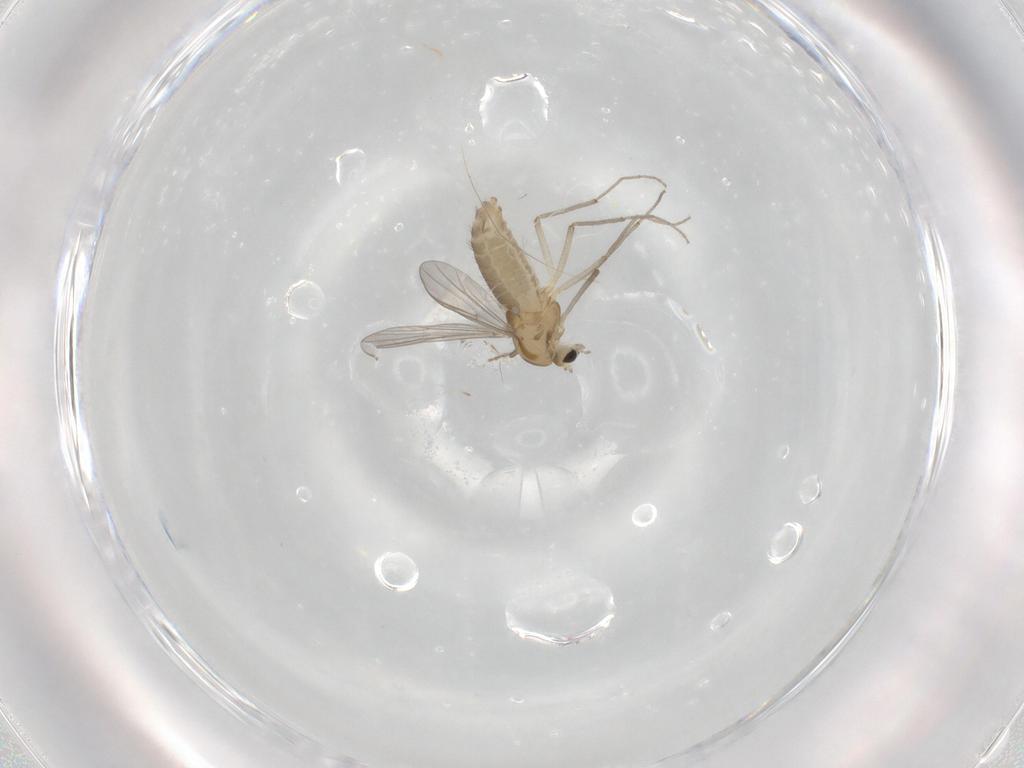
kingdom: Animalia
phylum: Arthropoda
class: Insecta
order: Diptera
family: Chironomidae
